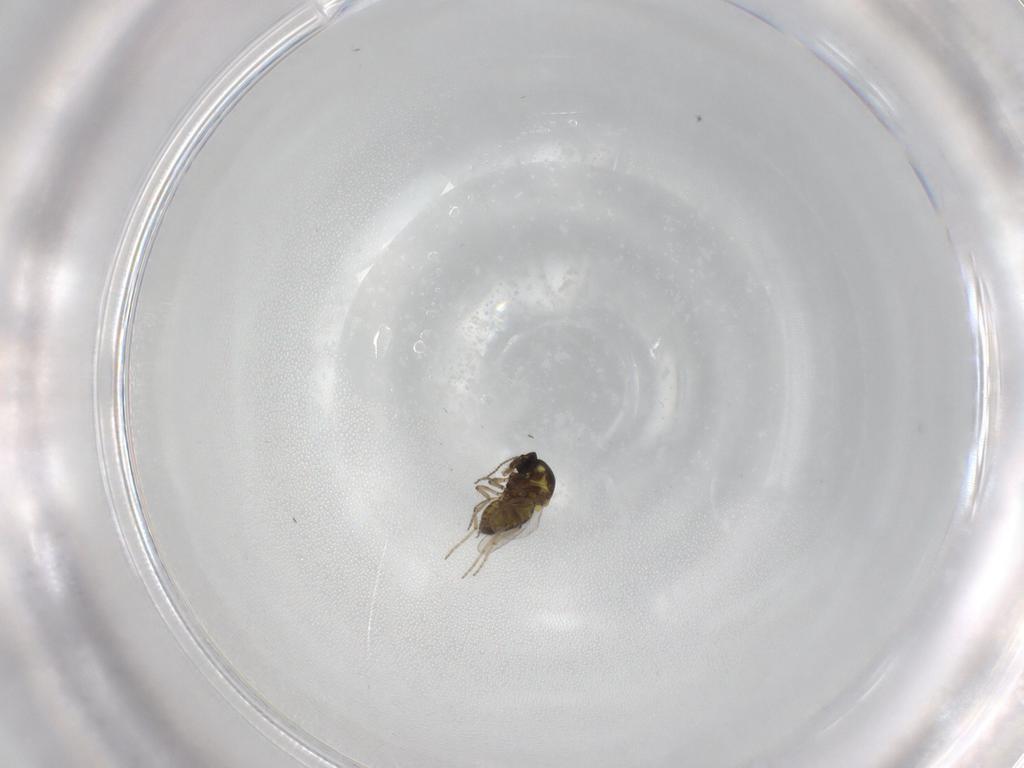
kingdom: Animalia
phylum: Arthropoda
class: Insecta
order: Diptera
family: Ceratopogonidae
